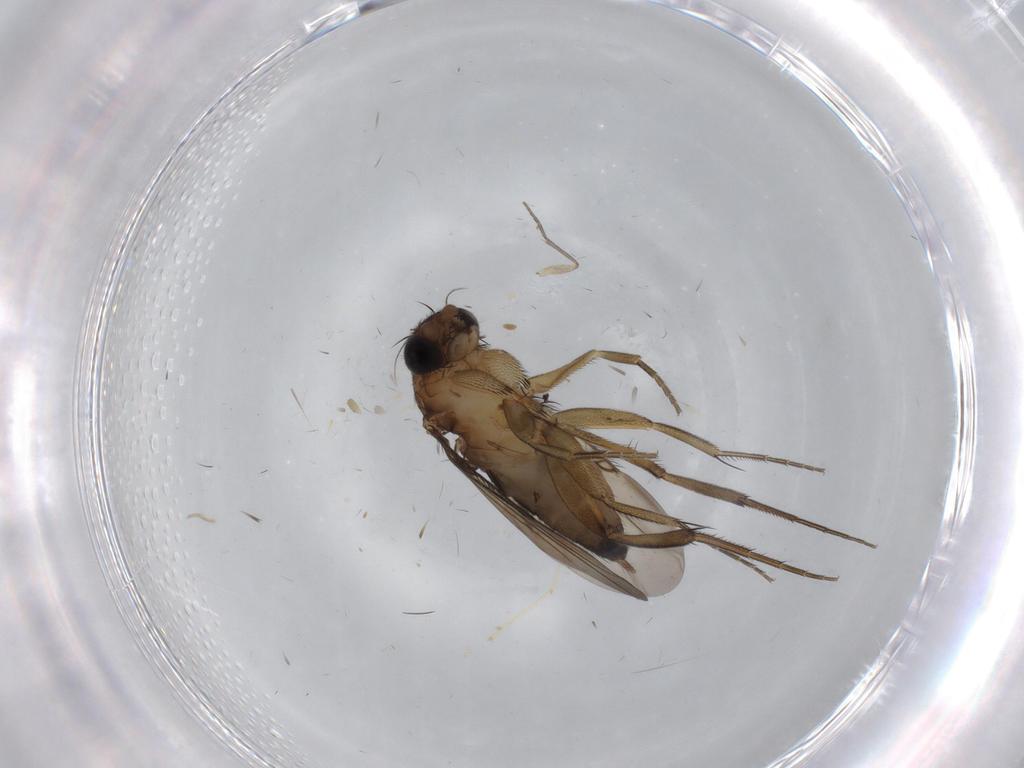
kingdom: Animalia
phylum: Arthropoda
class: Insecta
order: Diptera
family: Phoridae
